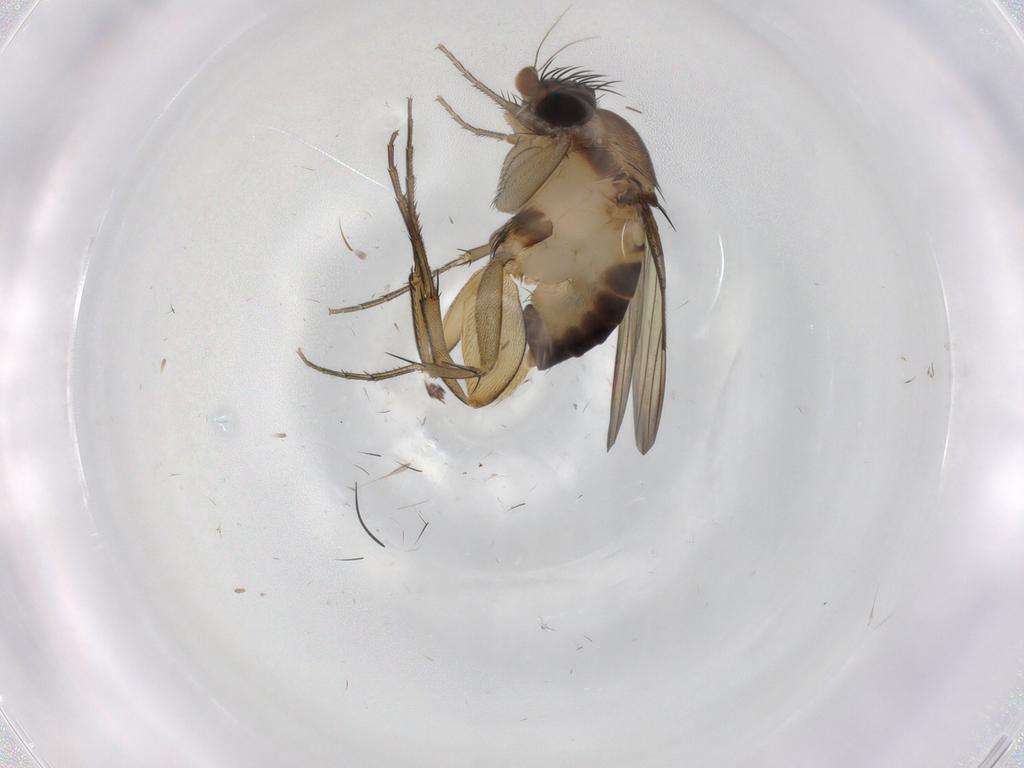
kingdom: Animalia
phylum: Arthropoda
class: Insecta
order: Diptera
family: Phoridae
